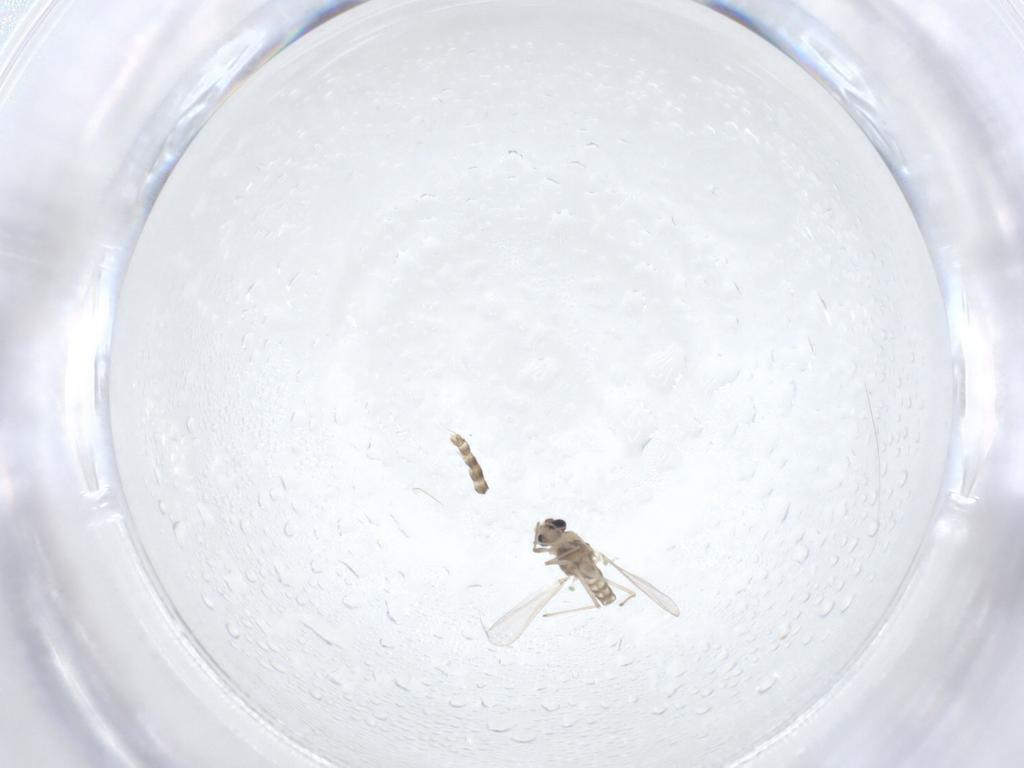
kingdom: Animalia
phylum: Arthropoda
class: Insecta
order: Diptera
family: Chironomidae
